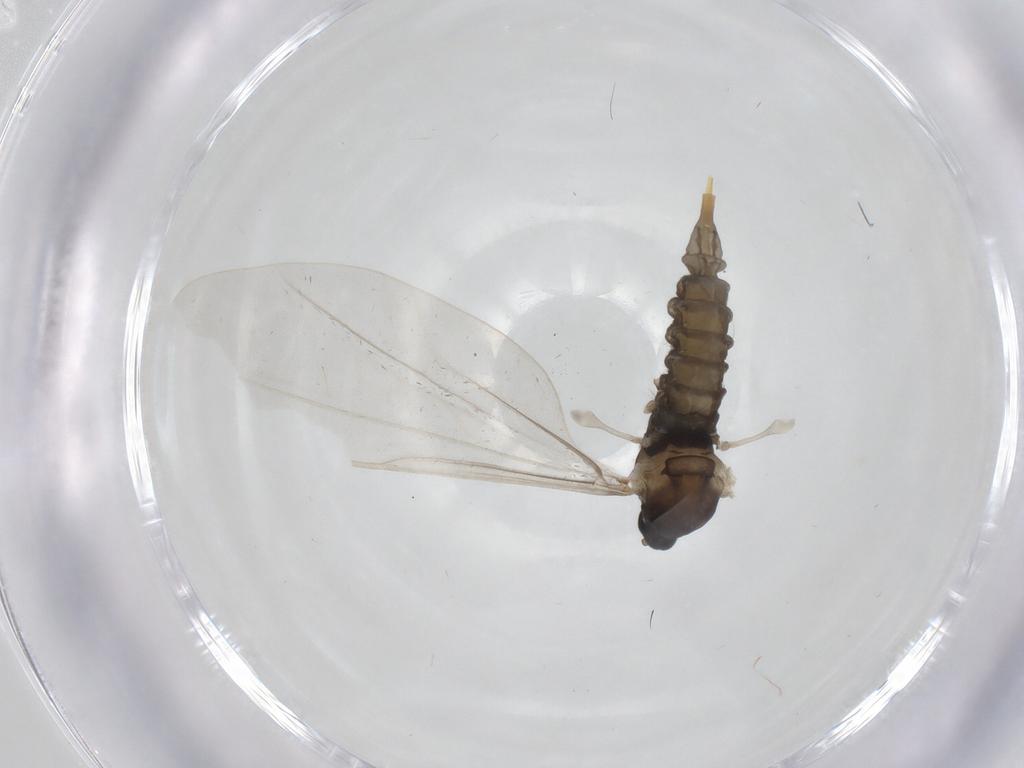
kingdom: Animalia
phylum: Arthropoda
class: Insecta
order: Diptera
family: Cecidomyiidae
